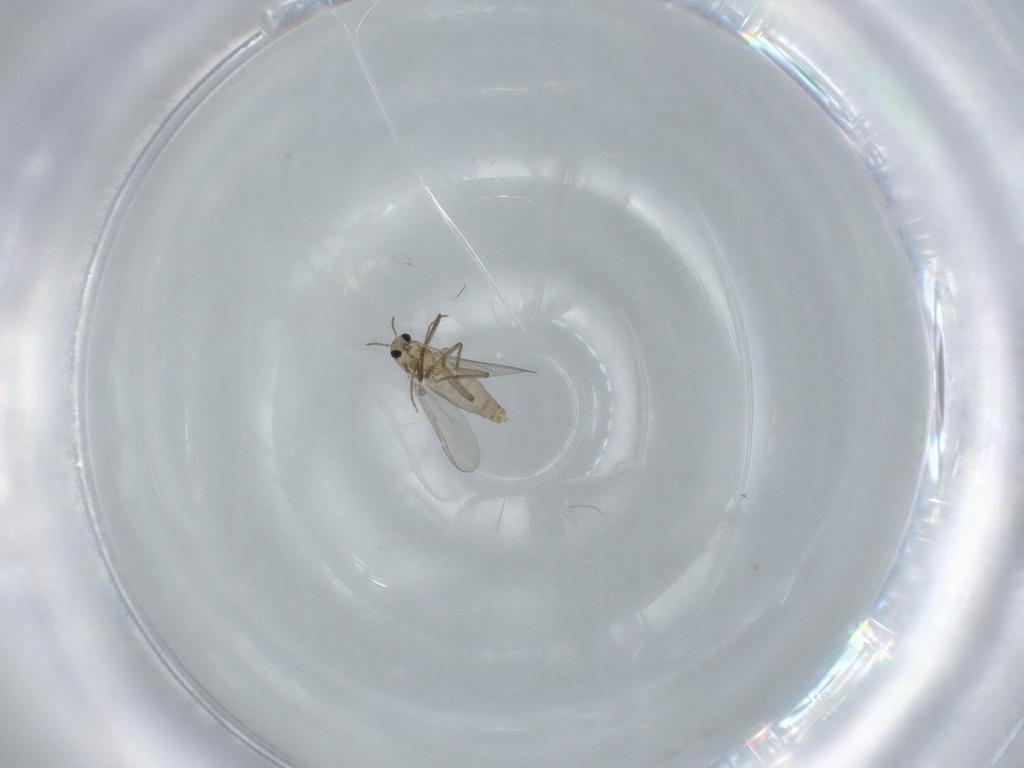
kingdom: Animalia
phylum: Arthropoda
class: Insecta
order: Diptera
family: Chironomidae
